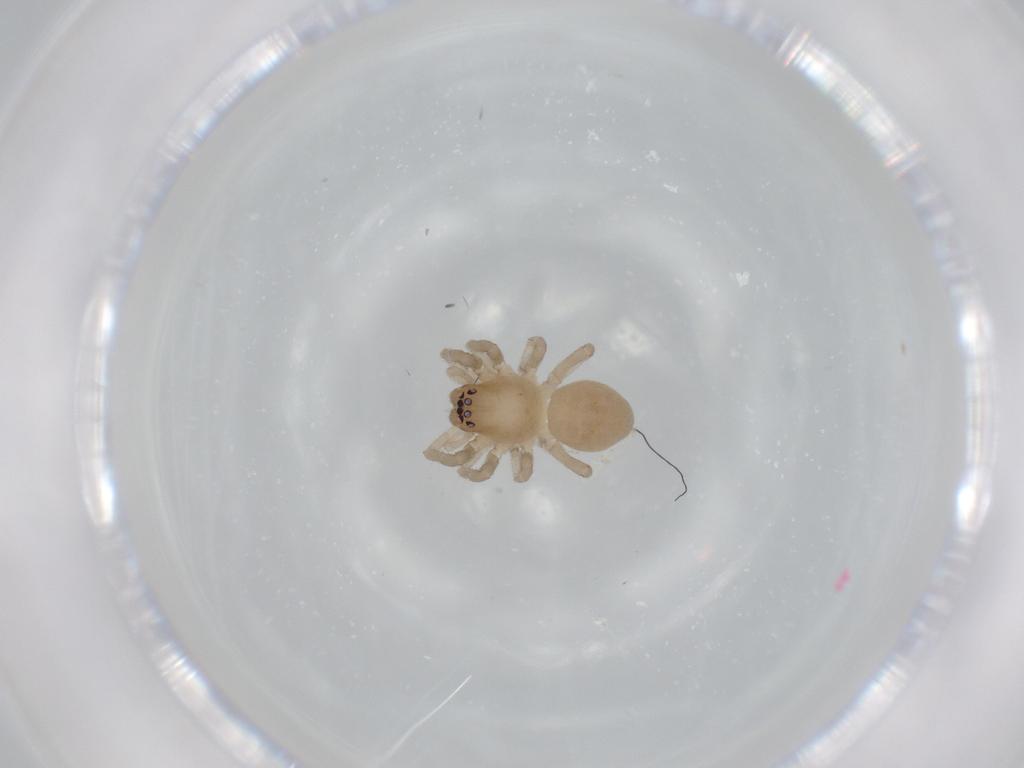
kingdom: Animalia
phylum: Arthropoda
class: Arachnida
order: Araneae
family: Trachelidae
